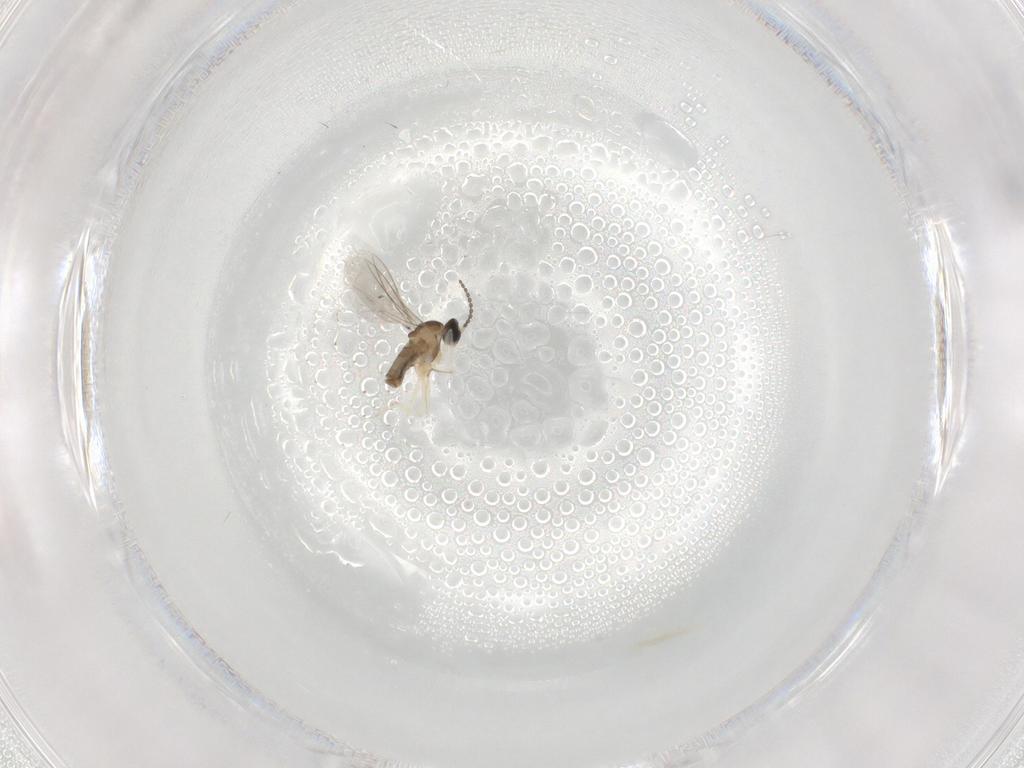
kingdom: Animalia
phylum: Arthropoda
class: Insecta
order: Diptera
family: Cecidomyiidae
